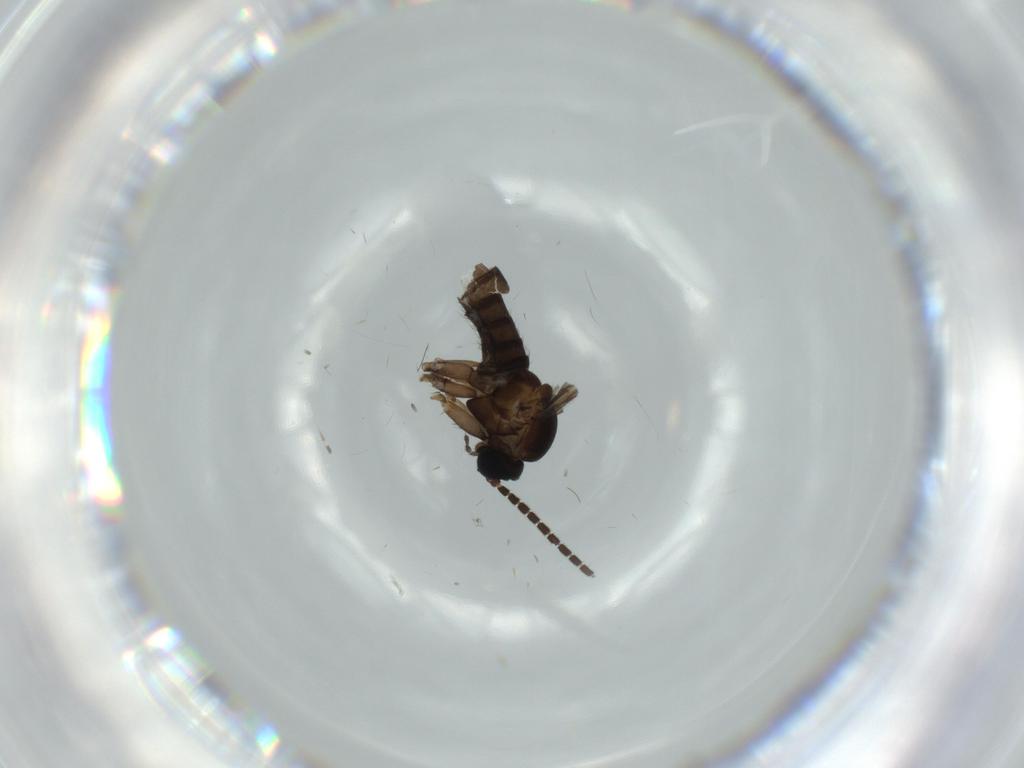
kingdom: Animalia
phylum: Arthropoda
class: Insecta
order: Diptera
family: Sciaridae
